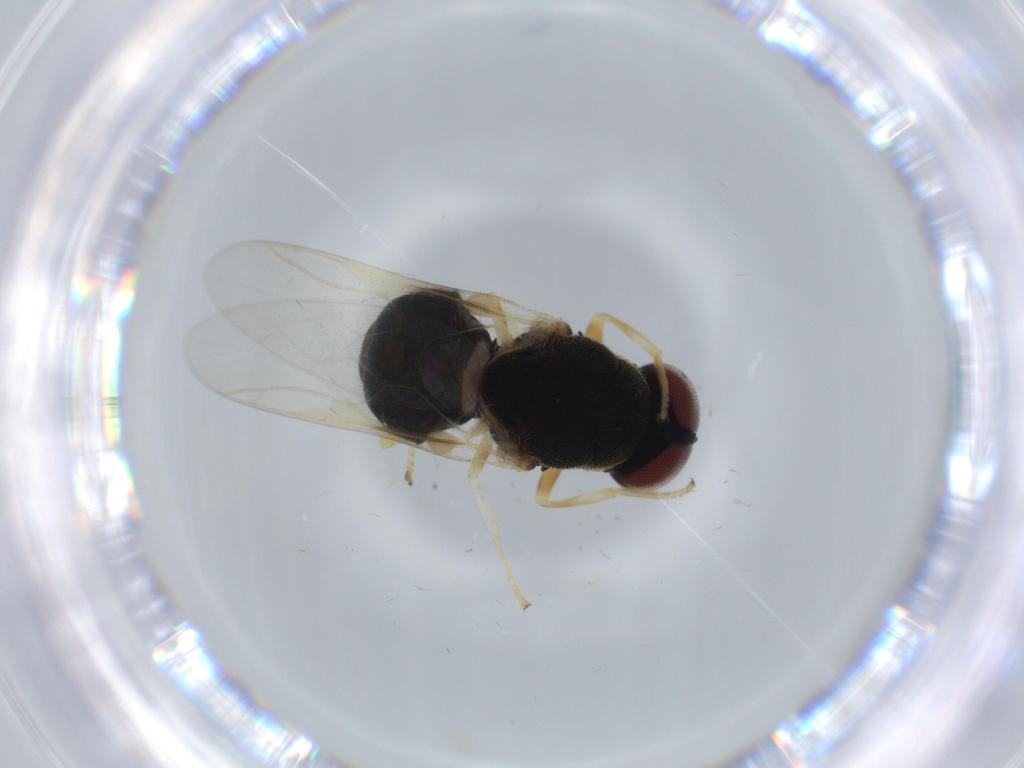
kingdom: Animalia
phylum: Arthropoda
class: Insecta
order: Diptera
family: Stratiomyidae
